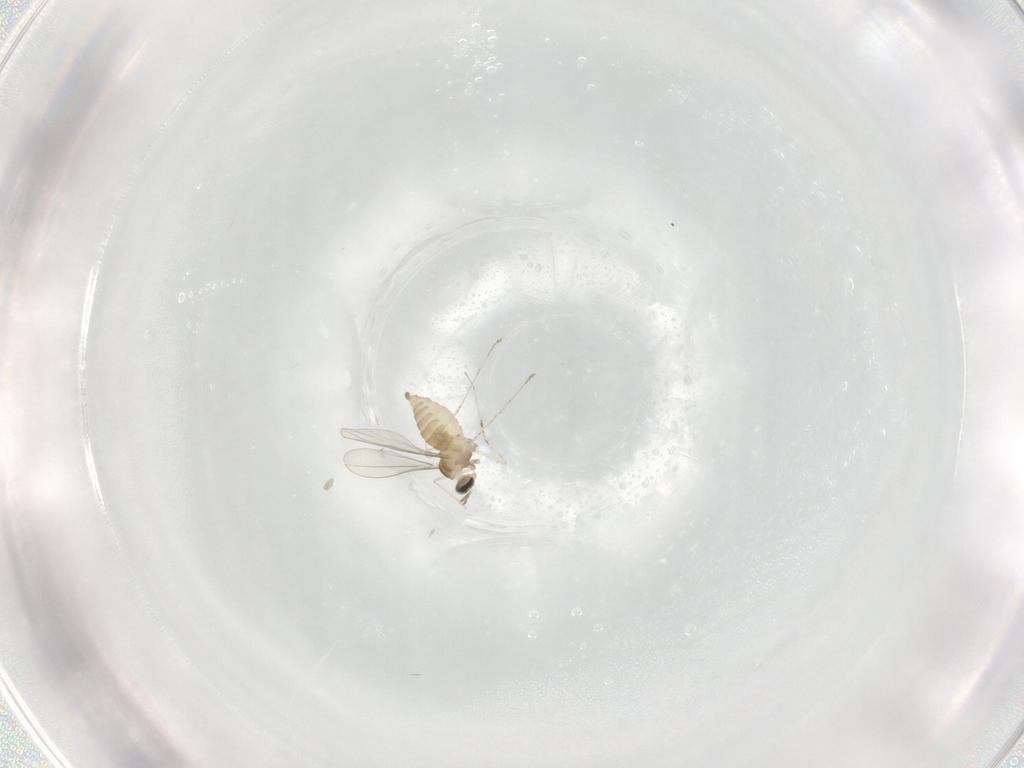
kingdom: Animalia
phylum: Arthropoda
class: Insecta
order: Diptera
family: Cecidomyiidae
